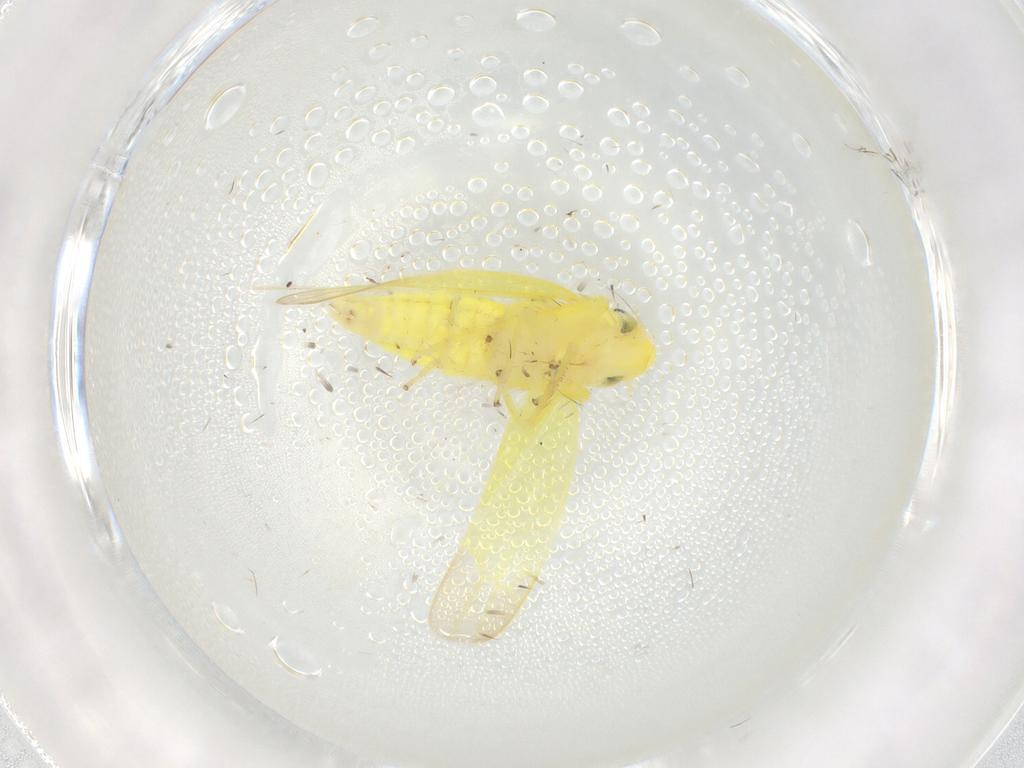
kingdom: Animalia
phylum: Arthropoda
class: Insecta
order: Hemiptera
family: Cicadellidae
